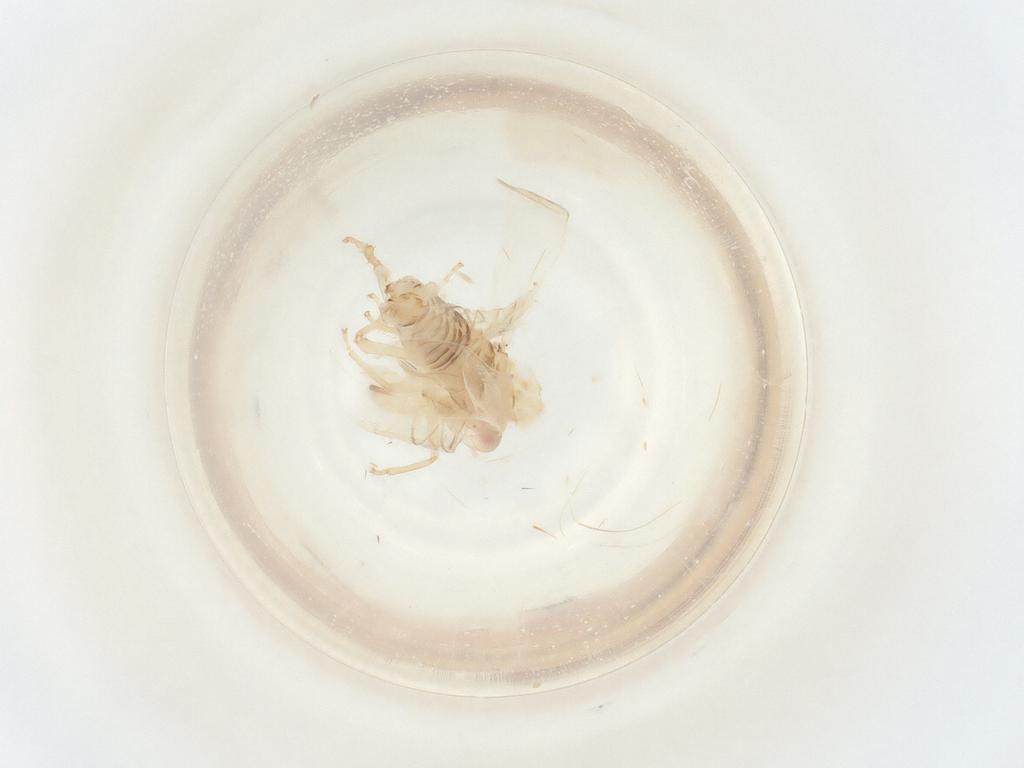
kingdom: Animalia
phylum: Arthropoda
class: Insecta
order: Hemiptera
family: Cicadellidae
